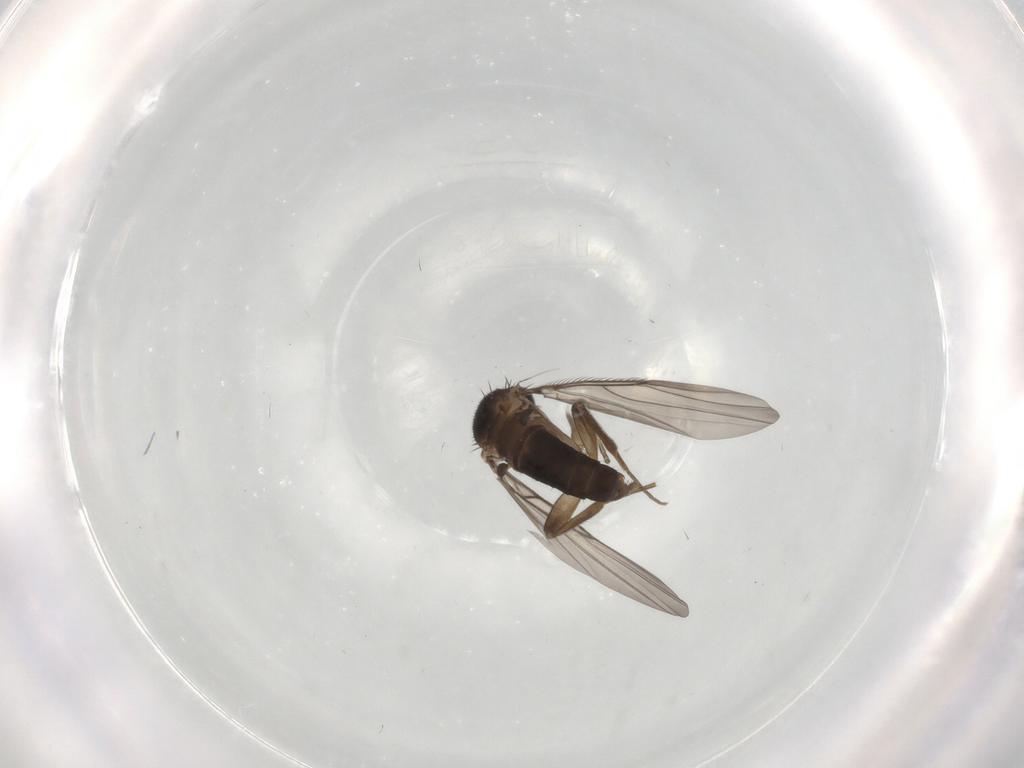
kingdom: Animalia
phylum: Arthropoda
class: Insecta
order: Diptera
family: Phoridae
